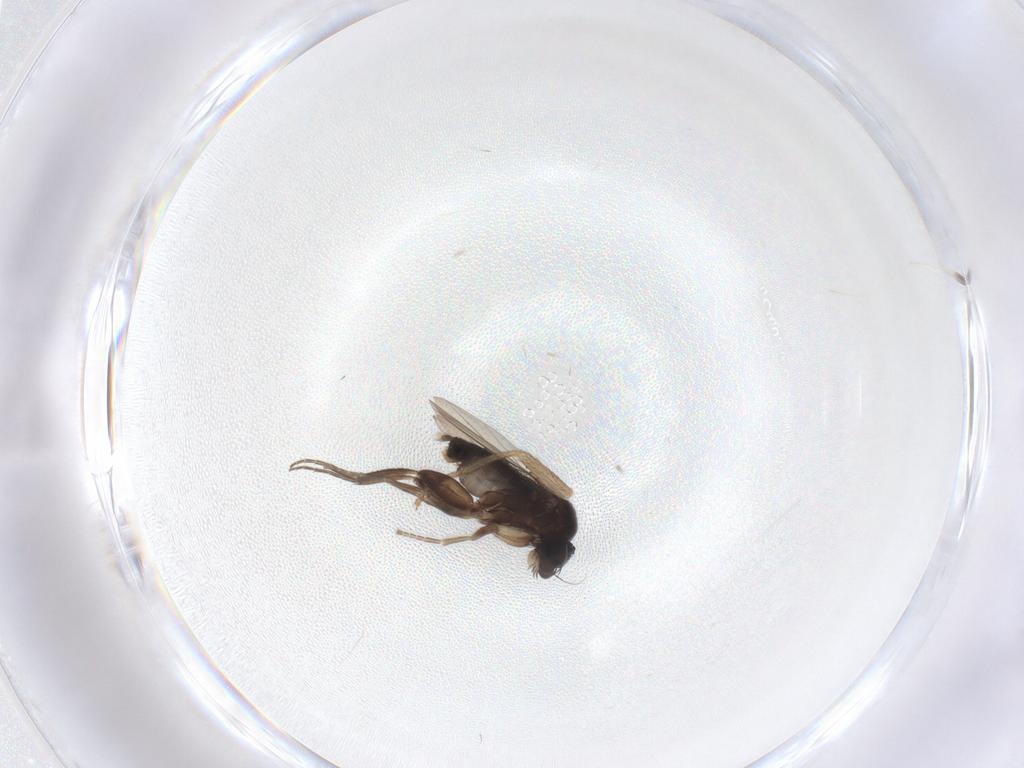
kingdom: Animalia
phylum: Arthropoda
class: Insecta
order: Diptera
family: Drosophilidae
